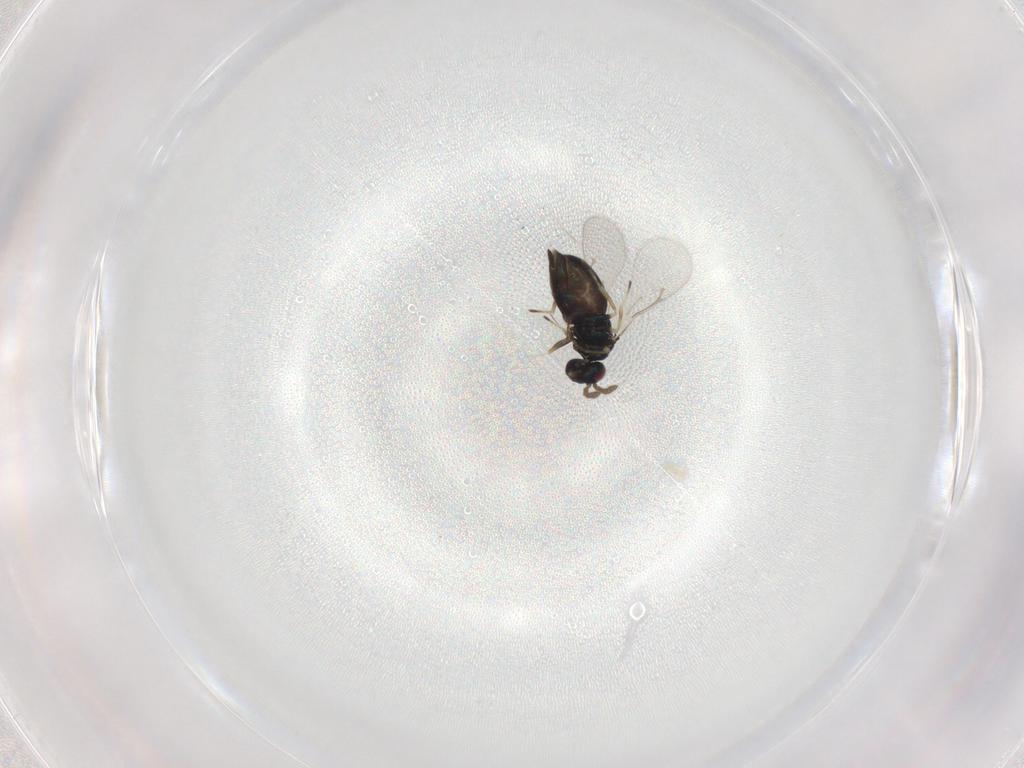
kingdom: Animalia
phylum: Arthropoda
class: Insecta
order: Hymenoptera
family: Eulophidae
